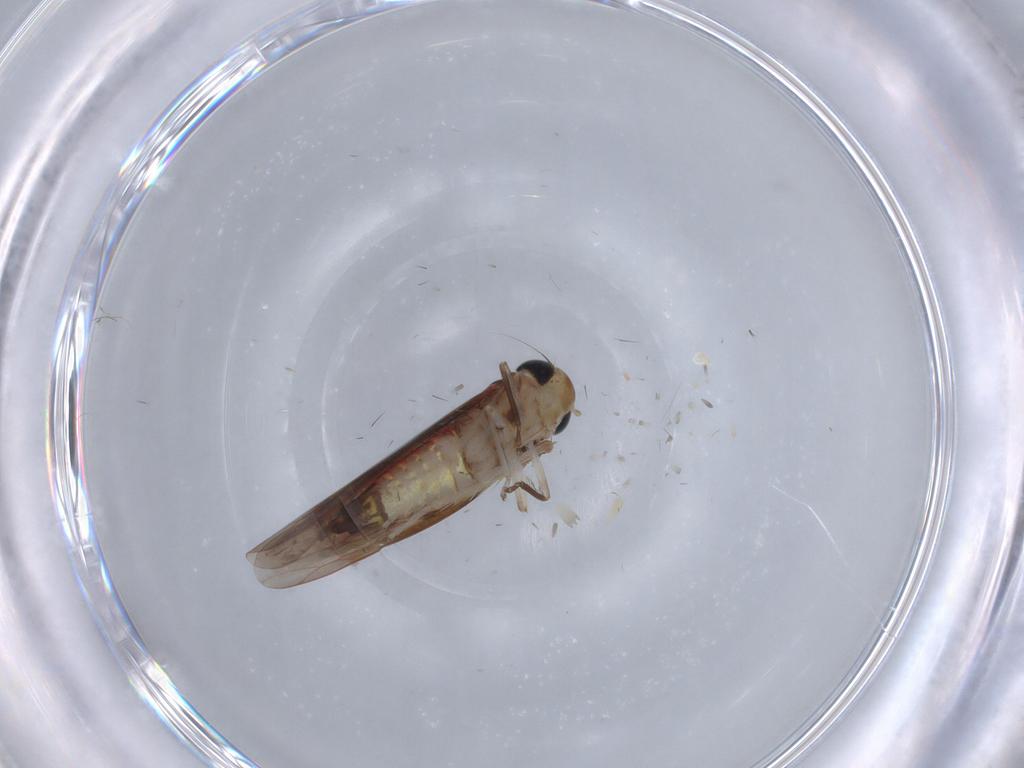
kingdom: Animalia
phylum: Arthropoda
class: Insecta
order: Hemiptera
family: Cicadellidae
